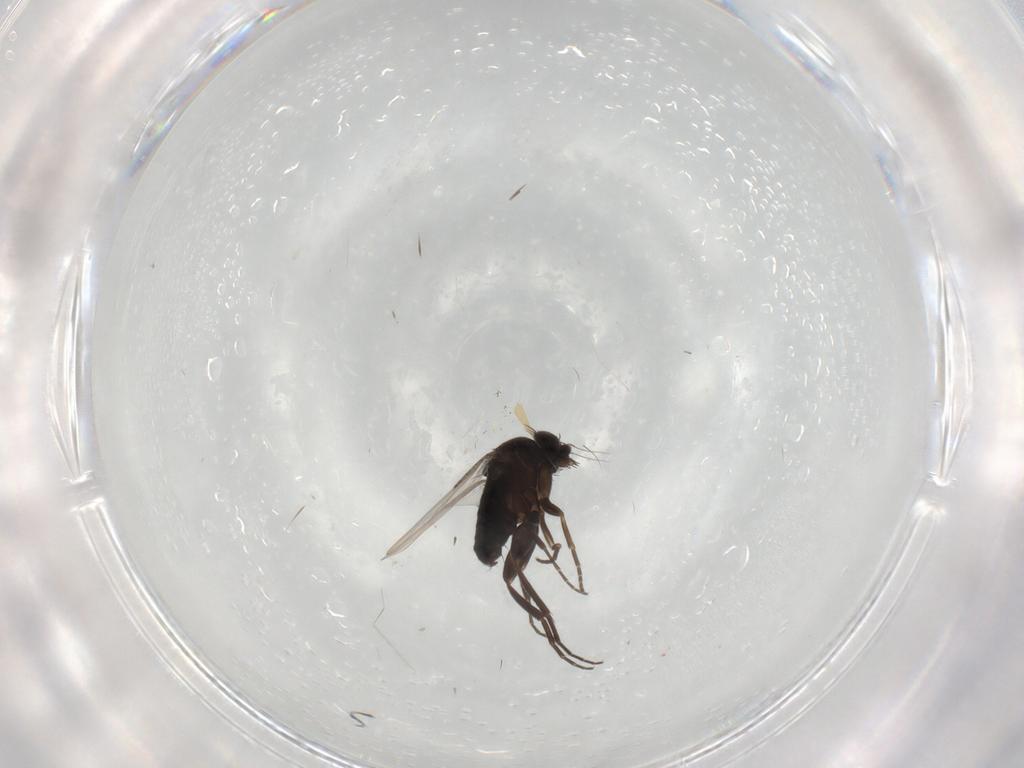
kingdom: Animalia
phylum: Arthropoda
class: Insecta
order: Diptera
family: Phoridae
